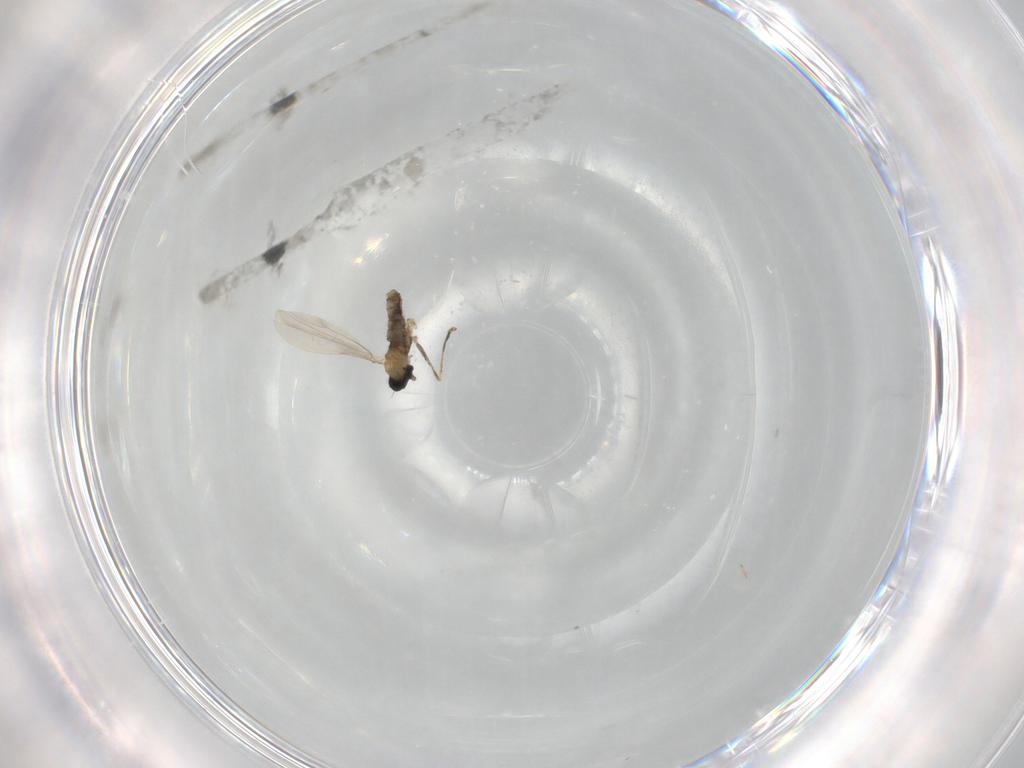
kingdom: Animalia
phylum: Arthropoda
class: Insecta
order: Diptera
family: Cecidomyiidae
